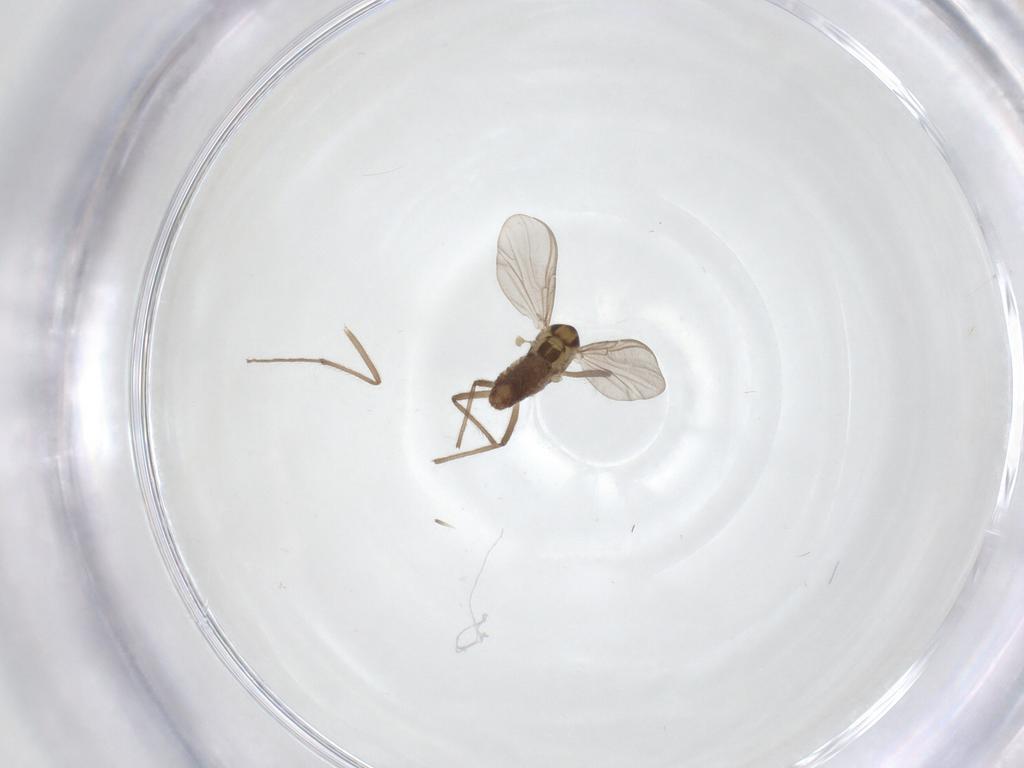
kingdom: Animalia
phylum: Arthropoda
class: Insecta
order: Diptera
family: Chironomidae
